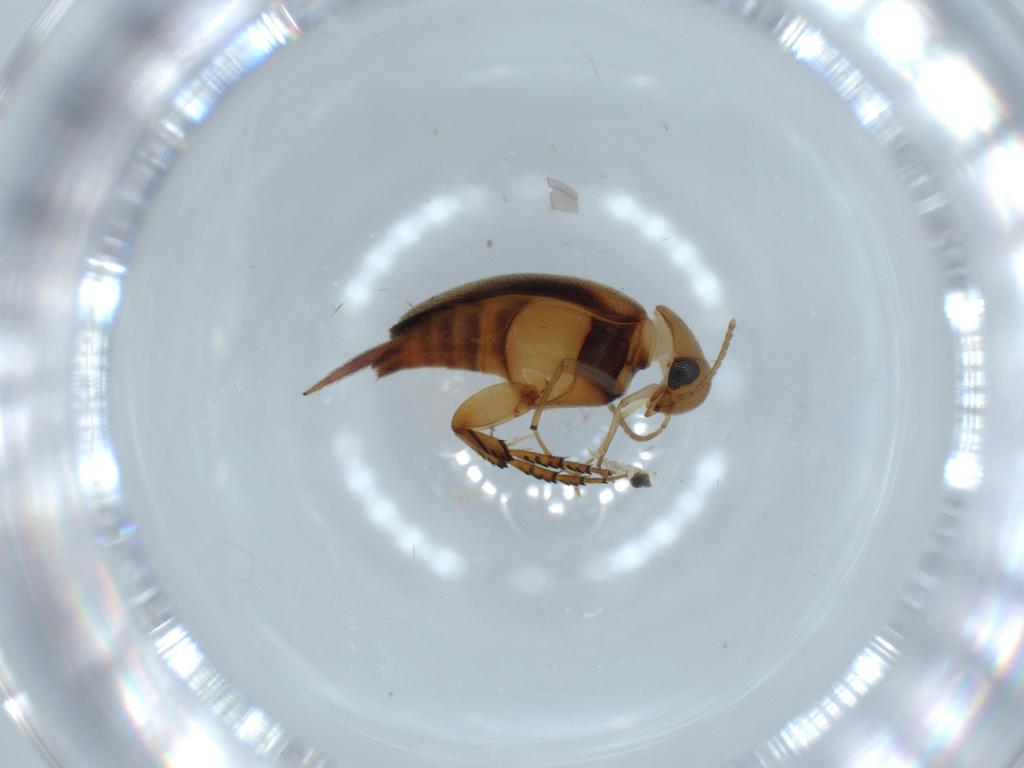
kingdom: Animalia
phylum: Arthropoda
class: Insecta
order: Coleoptera
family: Mordellidae
